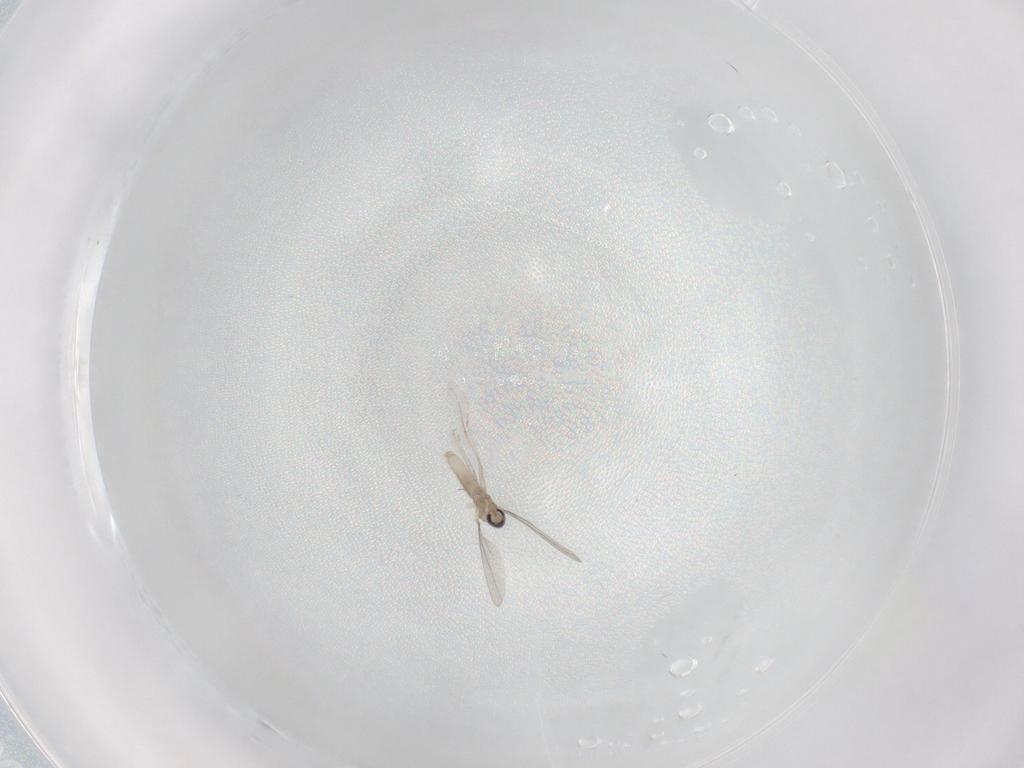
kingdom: Animalia
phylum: Arthropoda
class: Insecta
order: Diptera
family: Cecidomyiidae
